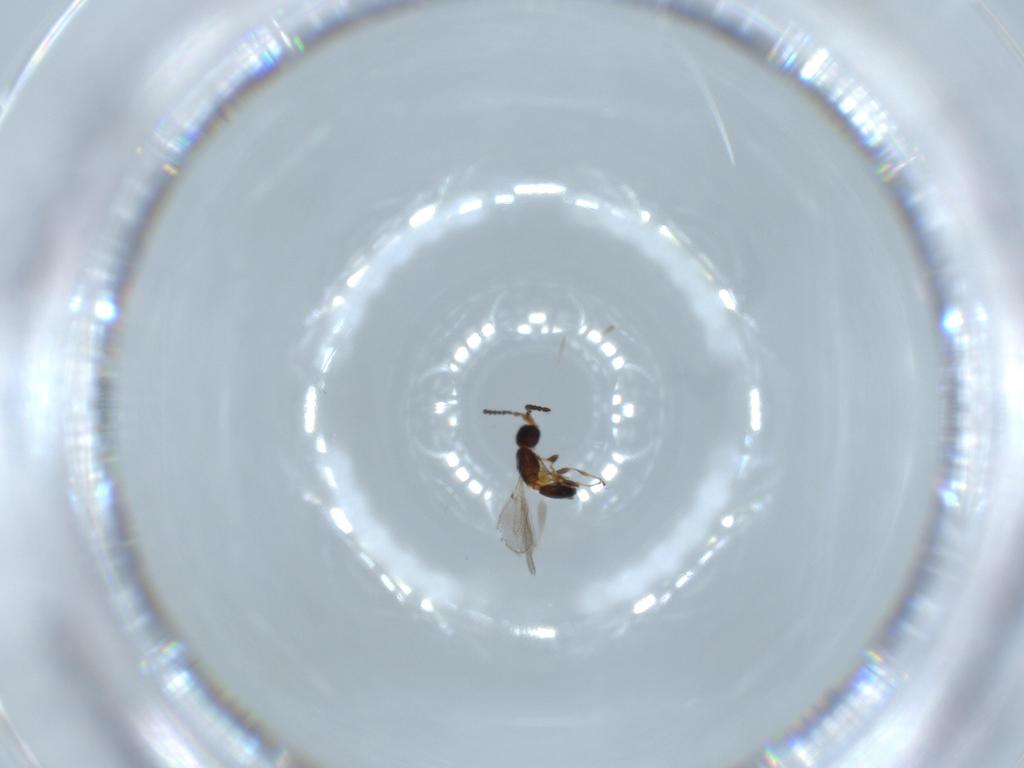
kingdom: Animalia
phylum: Arthropoda
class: Insecta
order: Hymenoptera
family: Diapriidae
